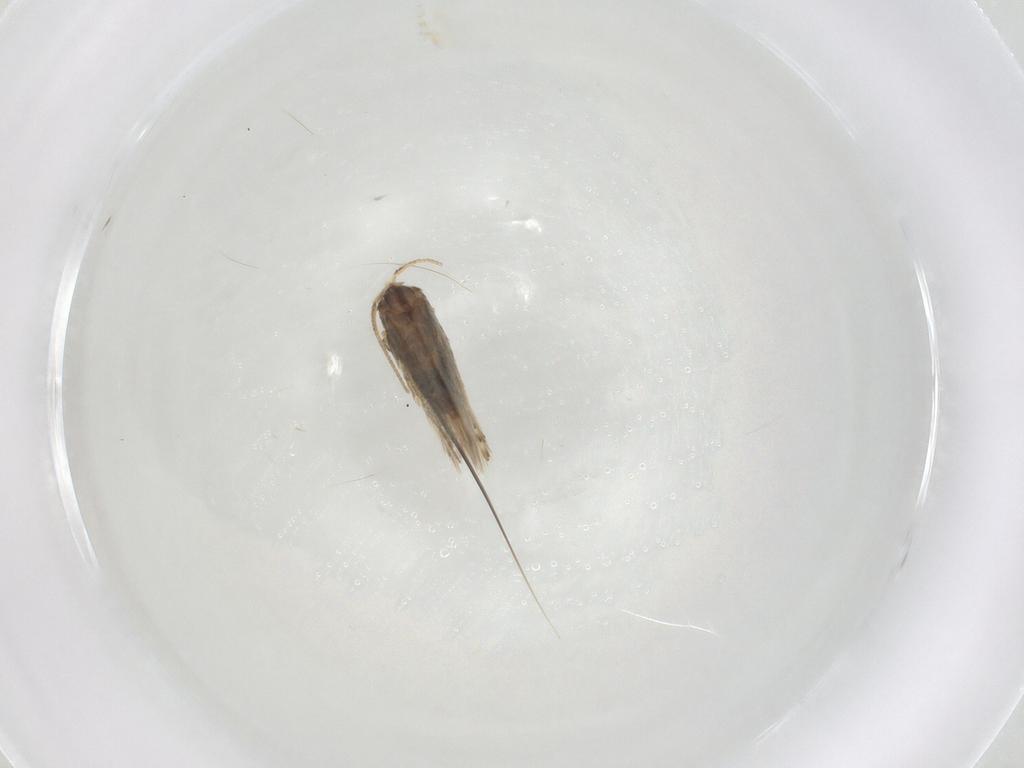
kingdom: Animalia
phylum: Arthropoda
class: Insecta
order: Lepidoptera
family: Nepticulidae
